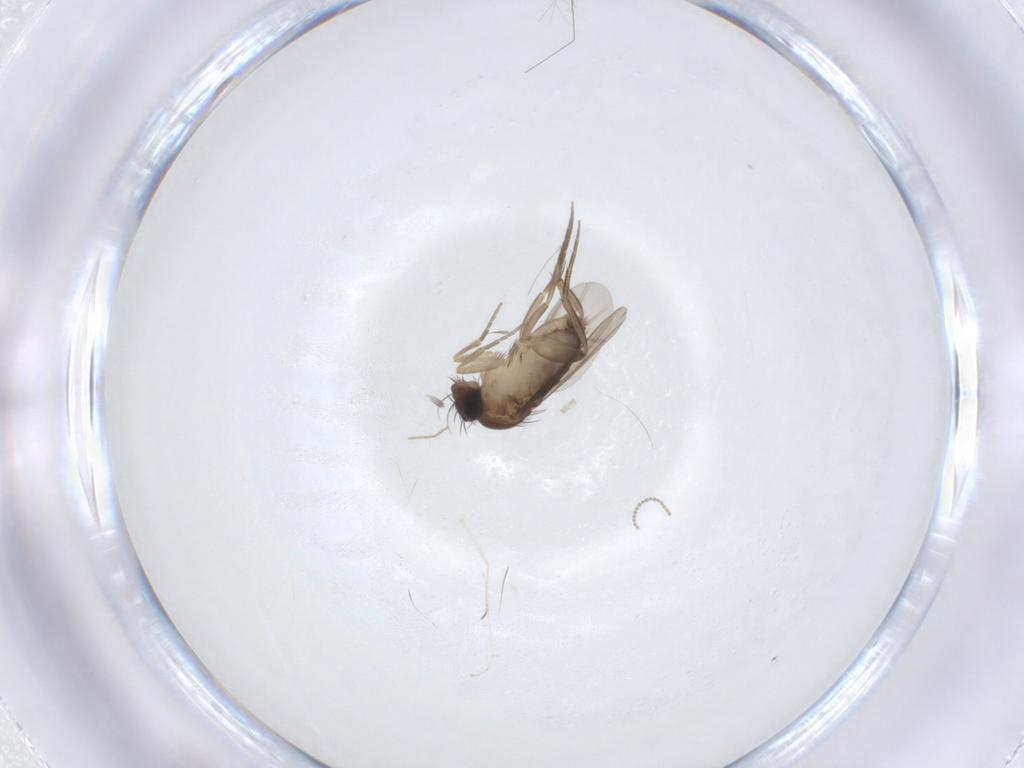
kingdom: Animalia
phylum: Arthropoda
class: Insecta
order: Diptera
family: Phoridae
